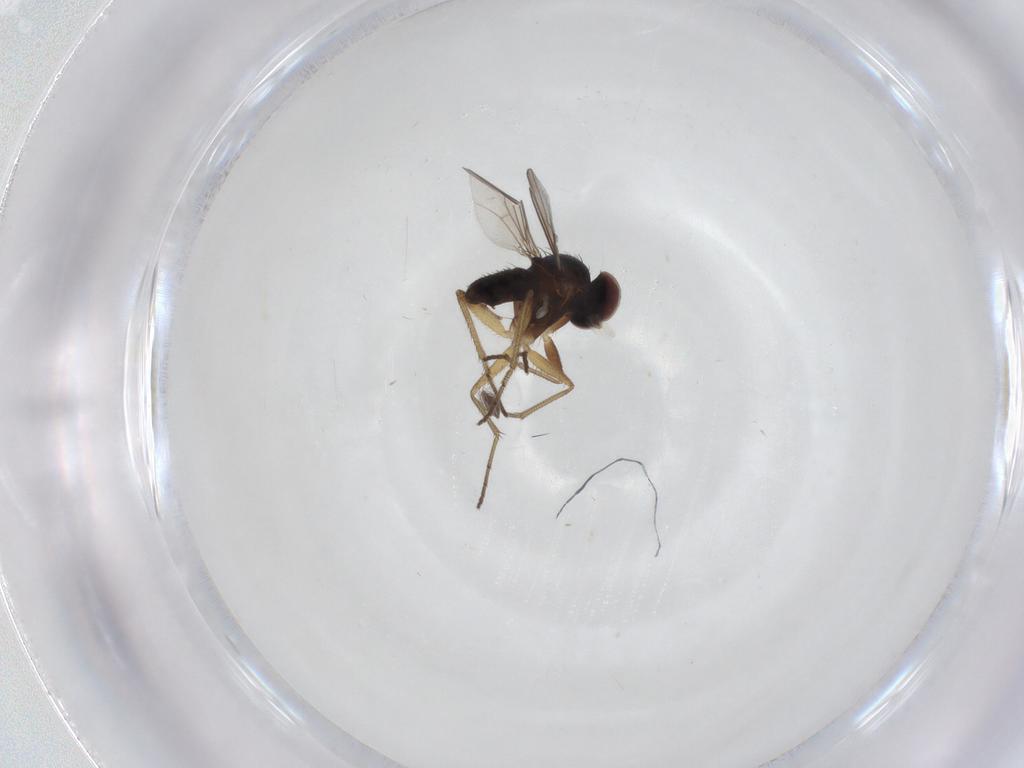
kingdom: Animalia
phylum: Arthropoda
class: Insecta
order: Diptera
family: Dolichopodidae
